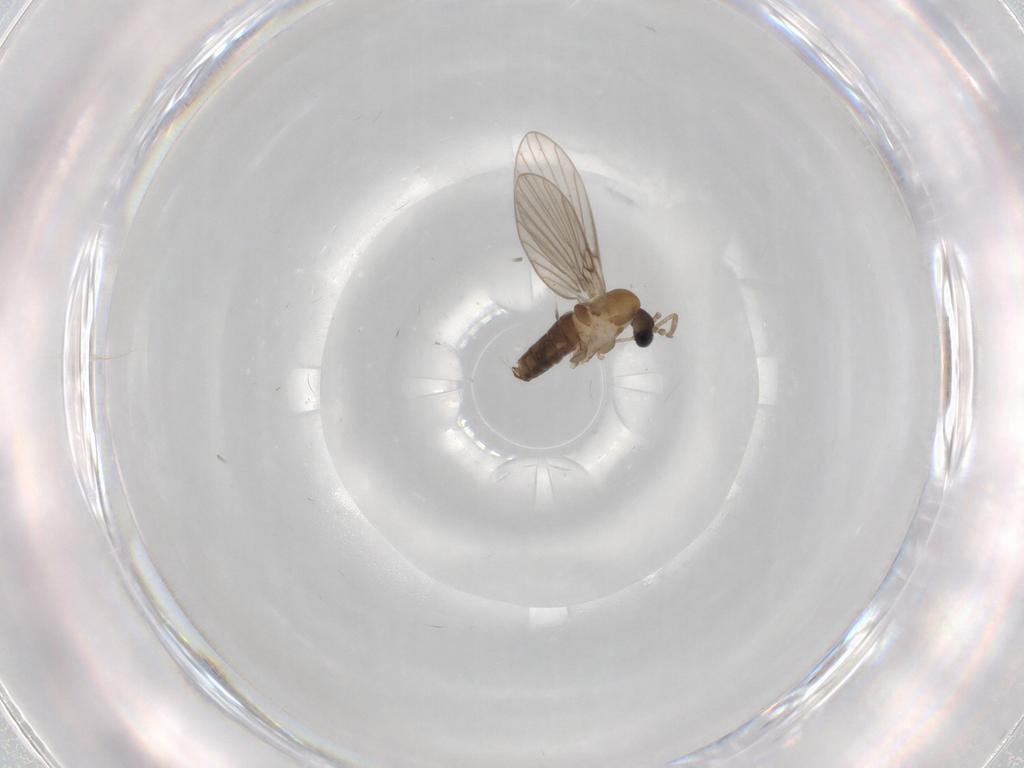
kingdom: Animalia
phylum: Arthropoda
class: Insecta
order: Diptera
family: Psychodidae
